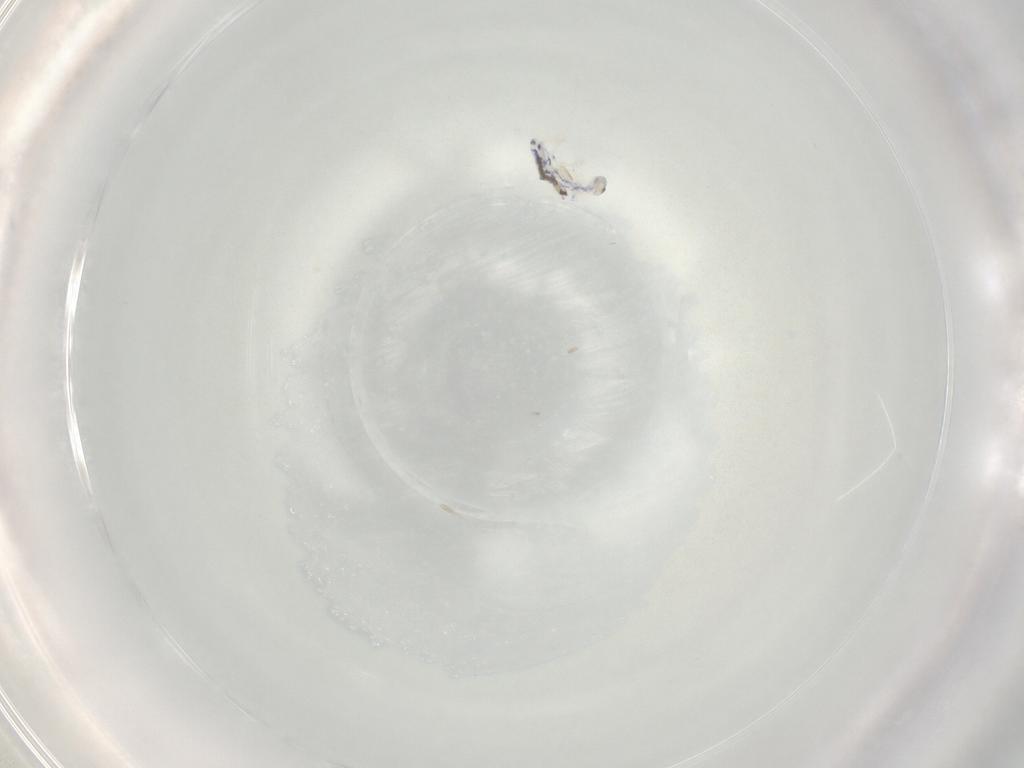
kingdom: Animalia
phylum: Arthropoda
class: Collembola
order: Entomobryomorpha
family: Entomobryidae
